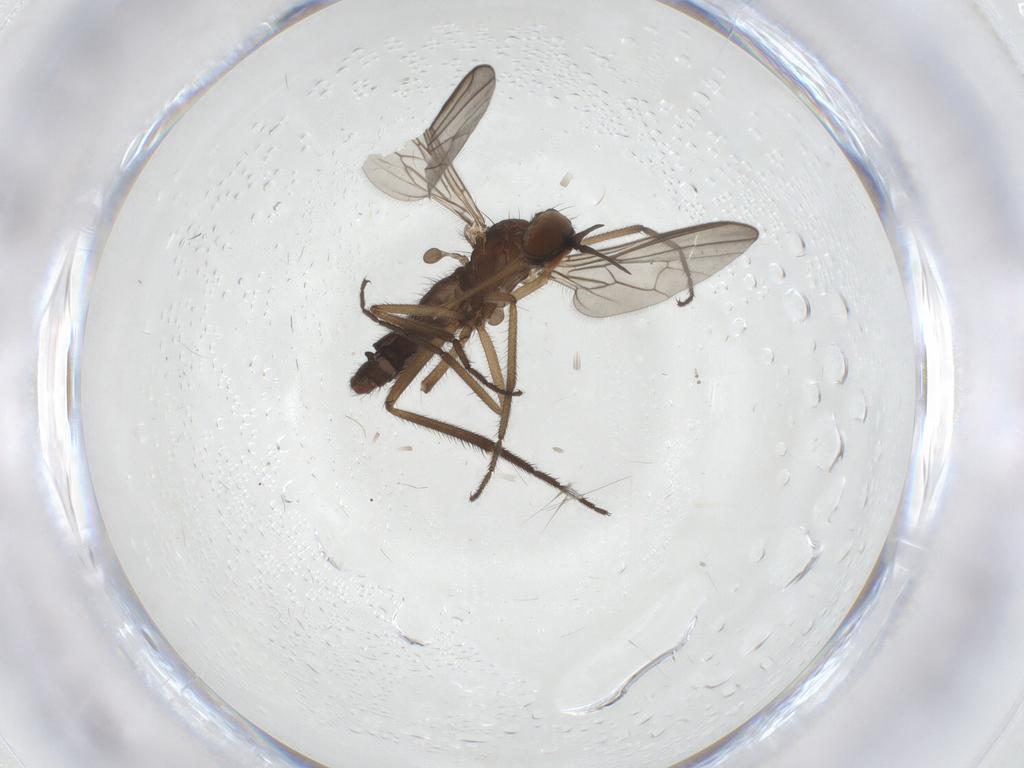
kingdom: Animalia
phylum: Arthropoda
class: Insecta
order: Diptera
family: Empididae
